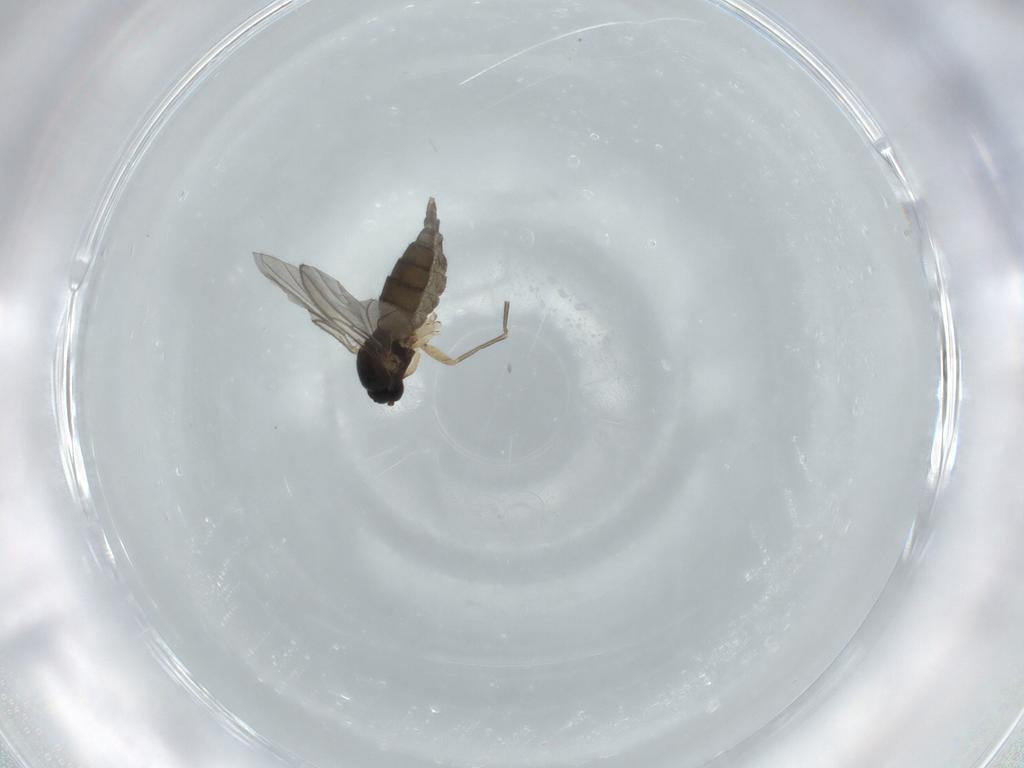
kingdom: Animalia
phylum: Arthropoda
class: Insecta
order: Diptera
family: Sciaridae
